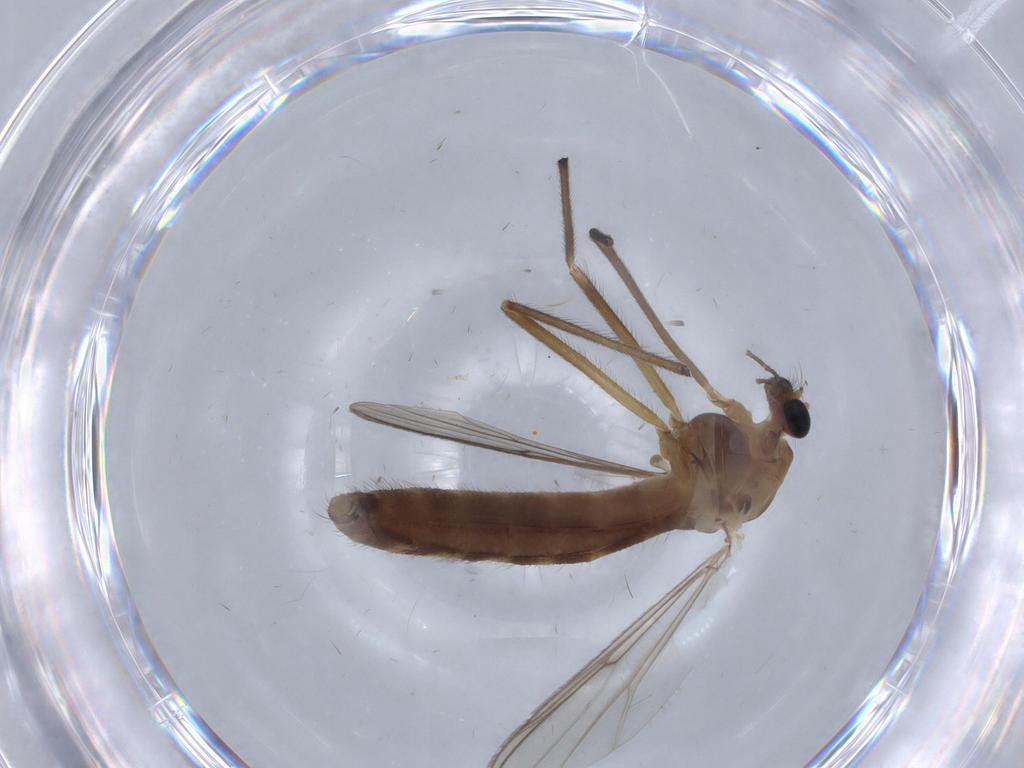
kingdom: Animalia
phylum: Arthropoda
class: Insecta
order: Diptera
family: Chironomidae
